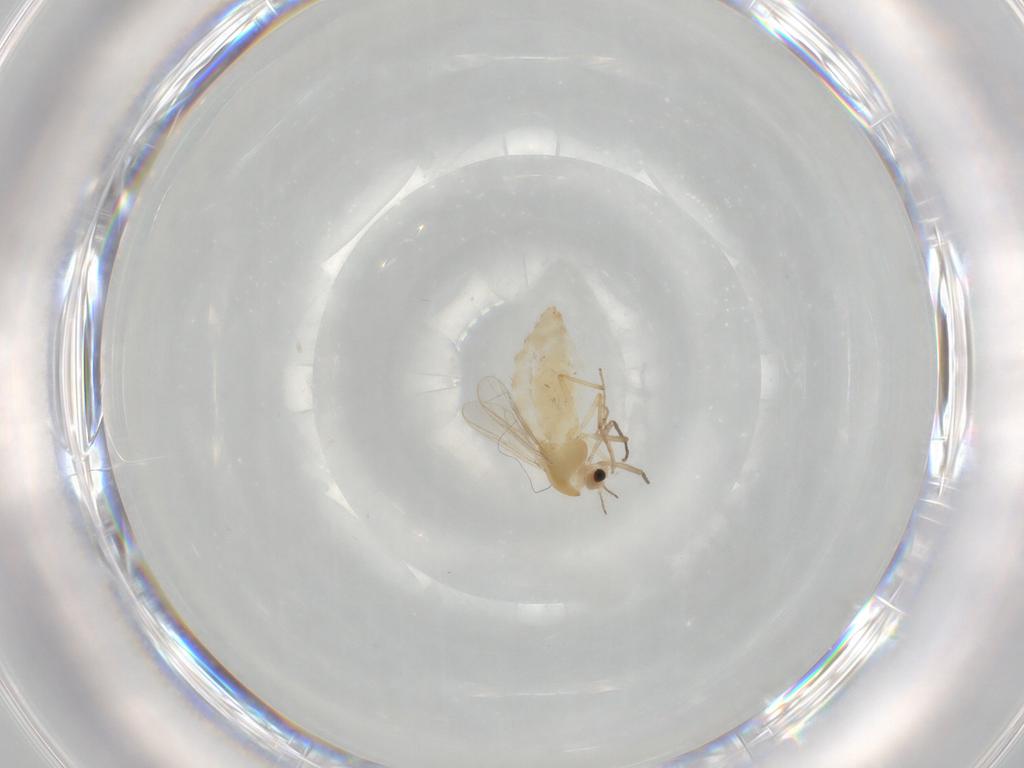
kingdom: Animalia
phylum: Arthropoda
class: Insecta
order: Diptera
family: Chironomidae
